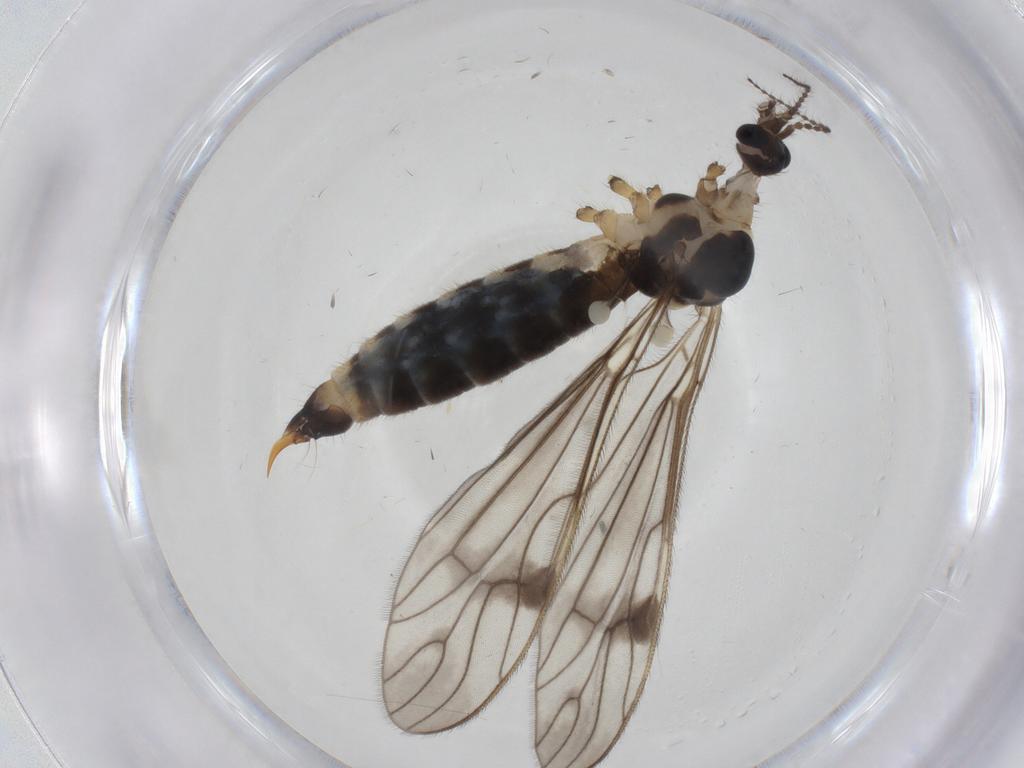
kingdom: Animalia
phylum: Arthropoda
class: Insecta
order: Diptera
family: Limoniidae
